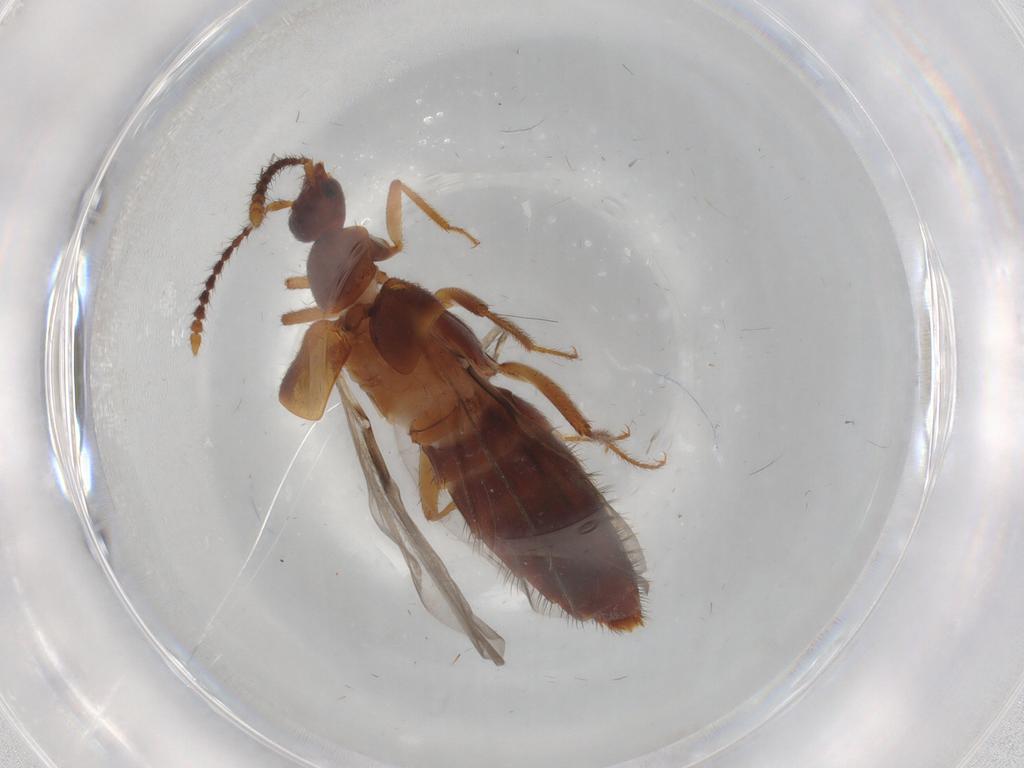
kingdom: Animalia
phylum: Arthropoda
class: Insecta
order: Coleoptera
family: Staphylinidae
